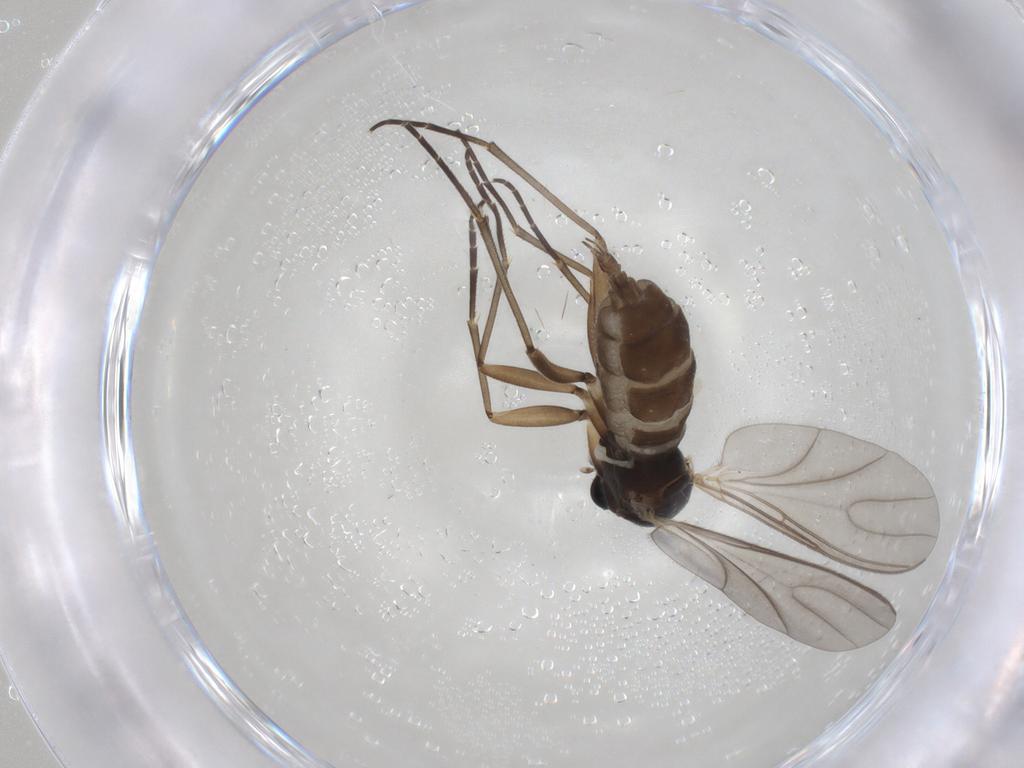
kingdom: Animalia
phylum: Arthropoda
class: Insecta
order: Diptera
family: Sciaridae
